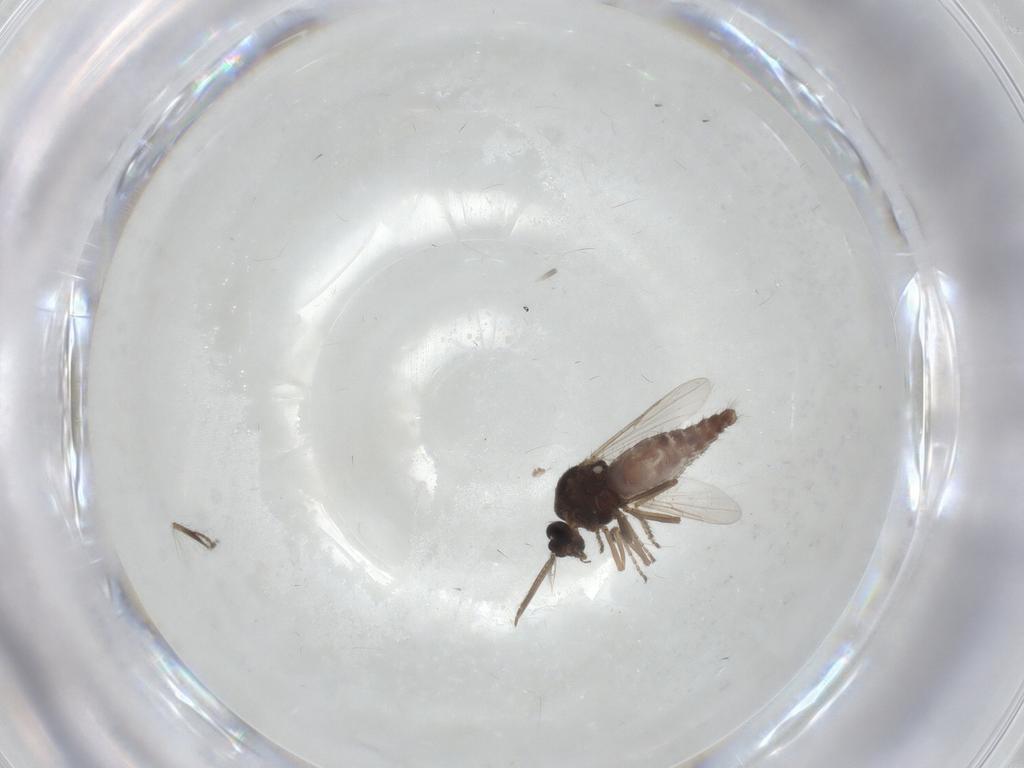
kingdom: Animalia
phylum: Arthropoda
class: Insecta
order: Diptera
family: Ceratopogonidae
